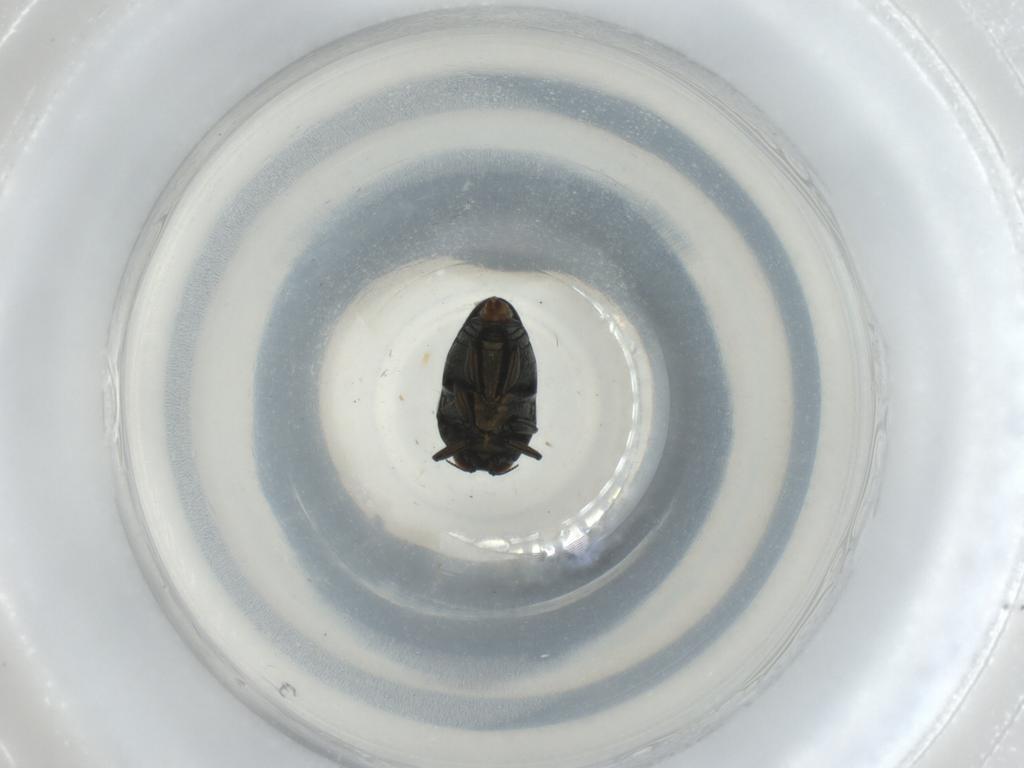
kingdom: Animalia
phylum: Arthropoda
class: Insecta
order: Coleoptera
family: Buprestidae
